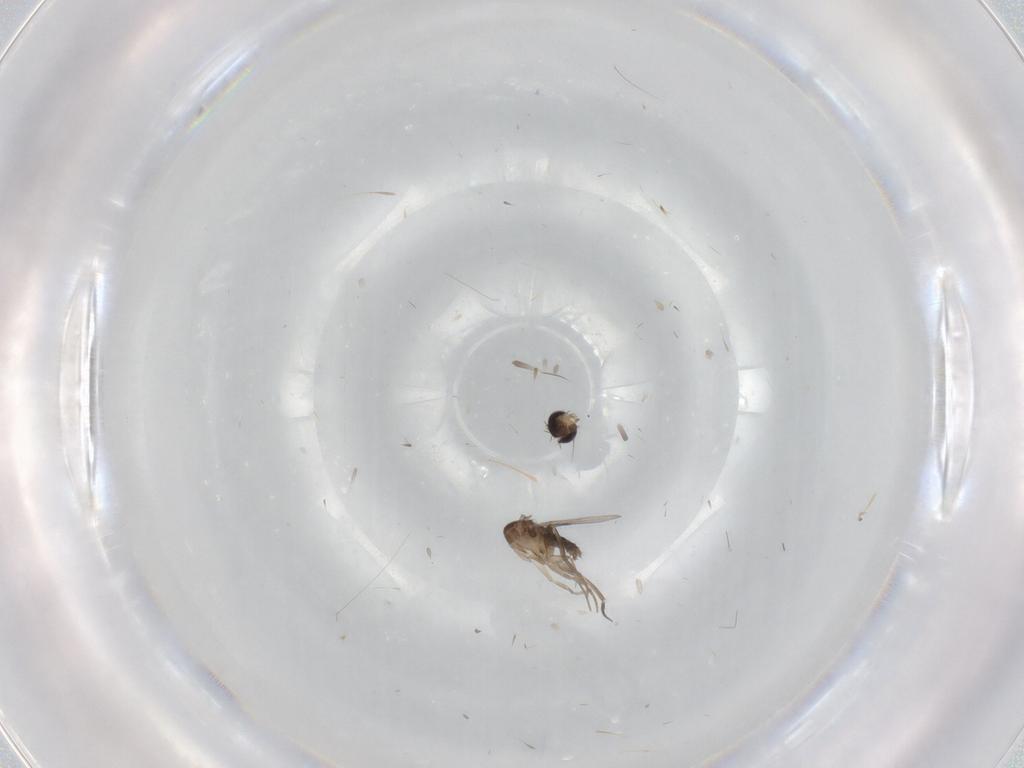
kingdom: Animalia
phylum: Arthropoda
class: Insecta
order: Diptera
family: Phoridae
